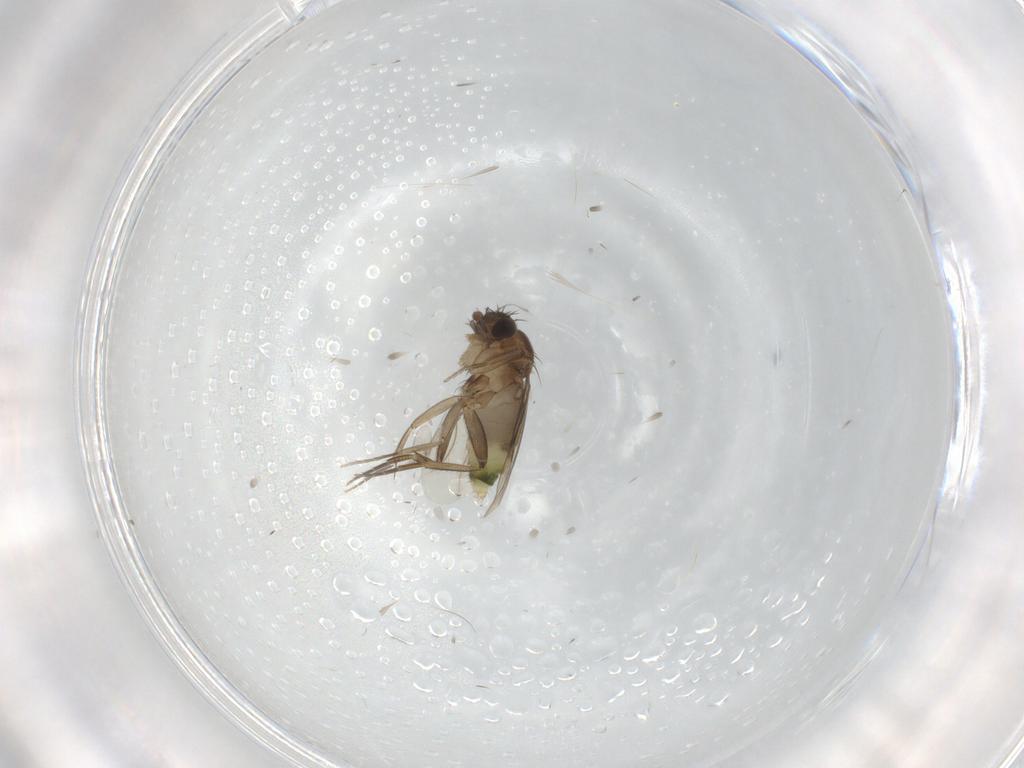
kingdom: Animalia
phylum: Arthropoda
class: Insecta
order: Diptera
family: Phoridae
